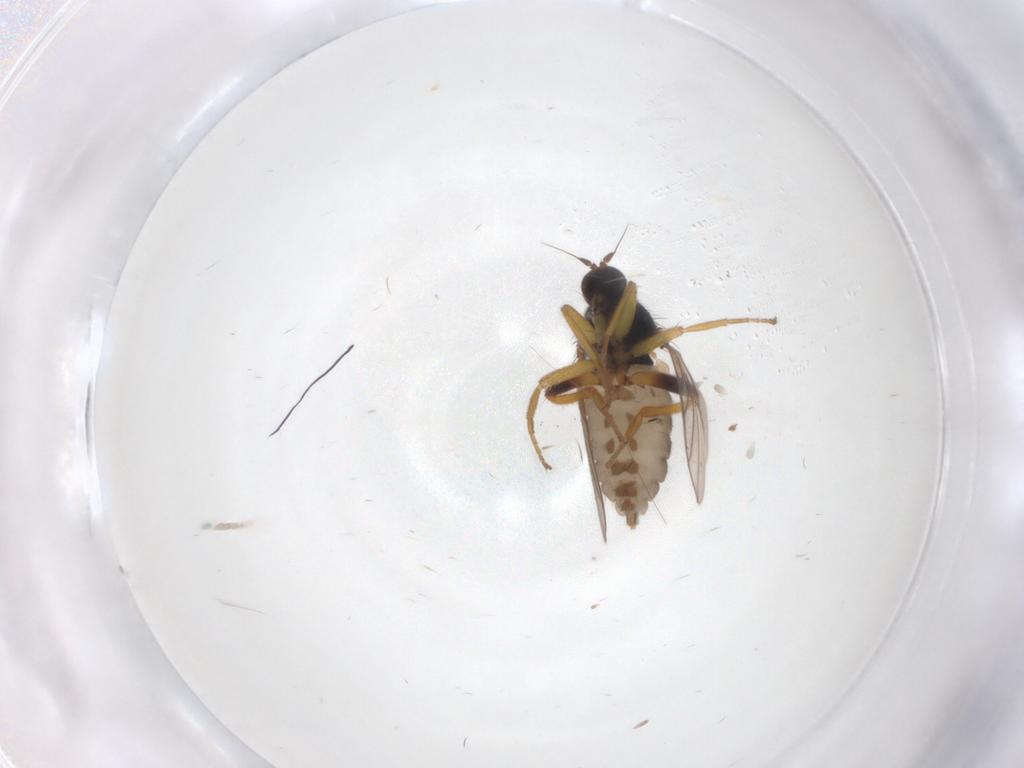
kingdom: Animalia
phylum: Arthropoda
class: Insecta
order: Diptera
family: Hybotidae
